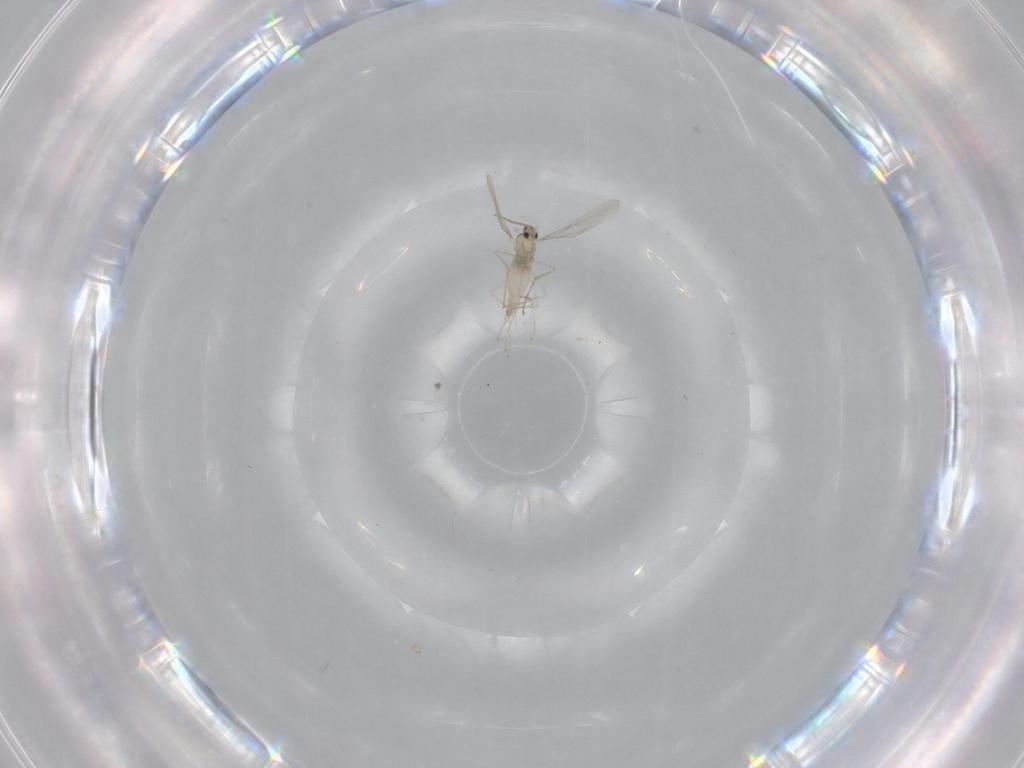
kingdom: Animalia
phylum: Arthropoda
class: Insecta
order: Diptera
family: Cecidomyiidae
